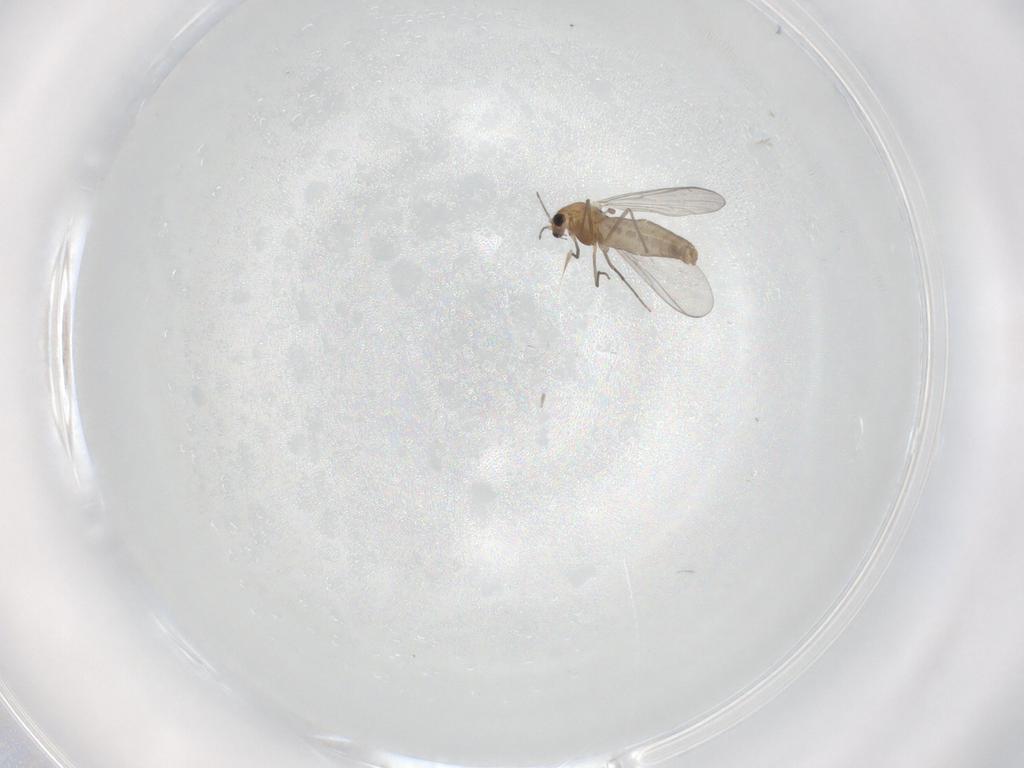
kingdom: Animalia
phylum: Arthropoda
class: Insecta
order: Diptera
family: Chironomidae
